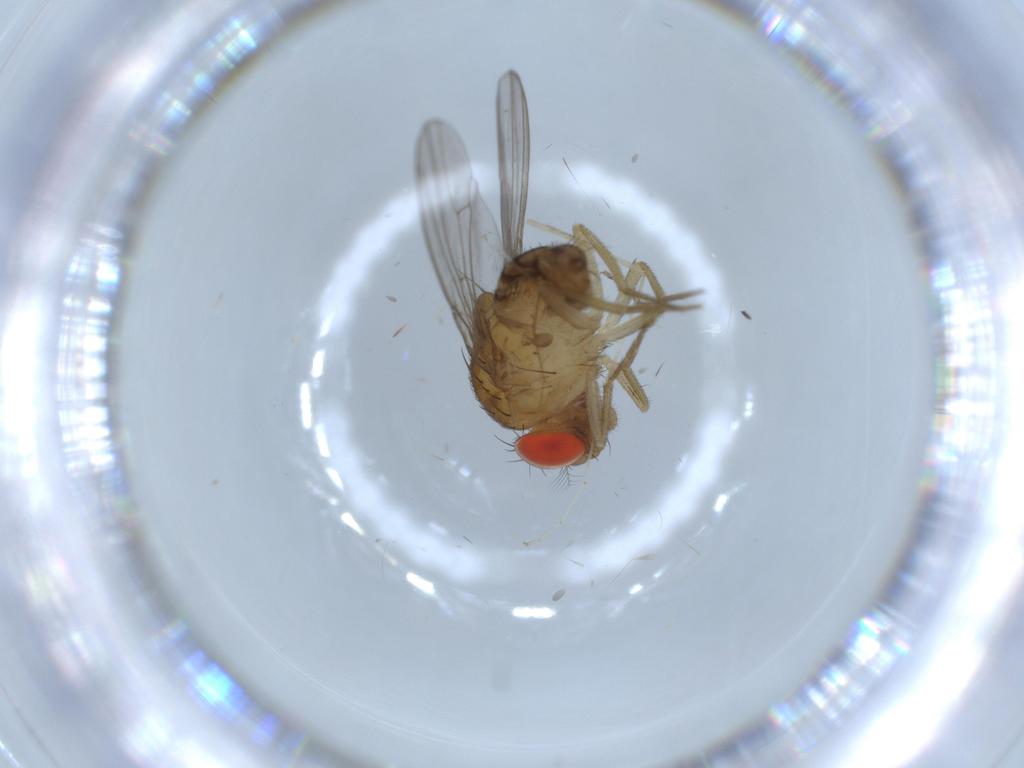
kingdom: Animalia
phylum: Arthropoda
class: Insecta
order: Diptera
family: Drosophilidae
